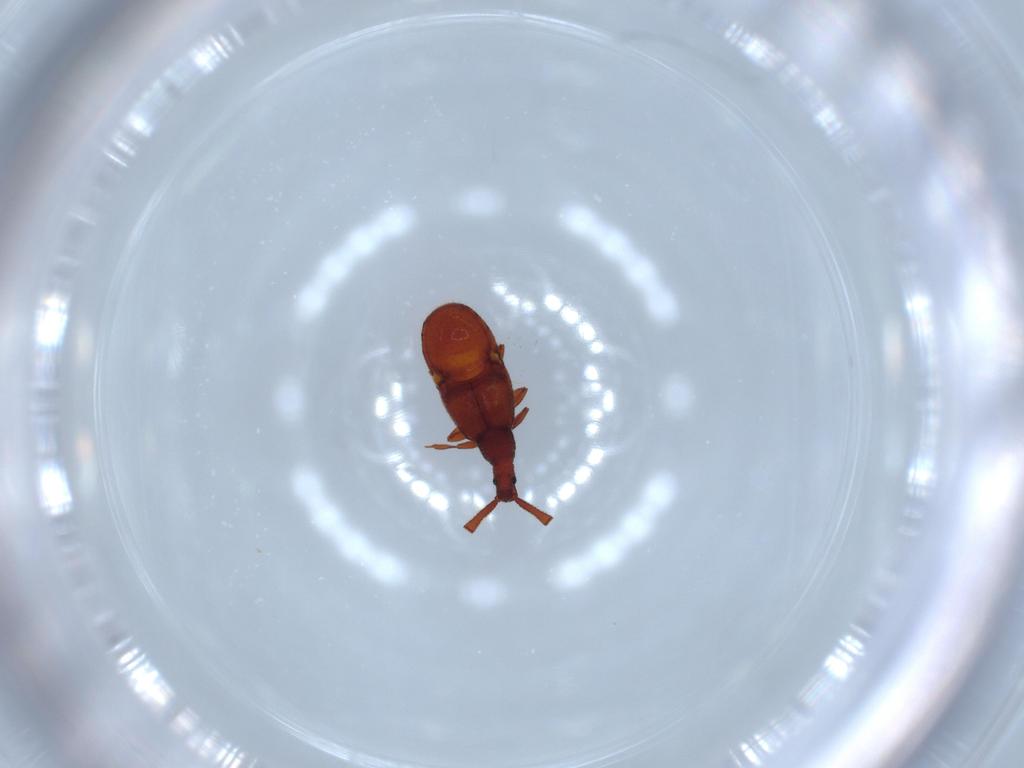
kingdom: Animalia
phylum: Arthropoda
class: Insecta
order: Coleoptera
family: Staphylinidae
